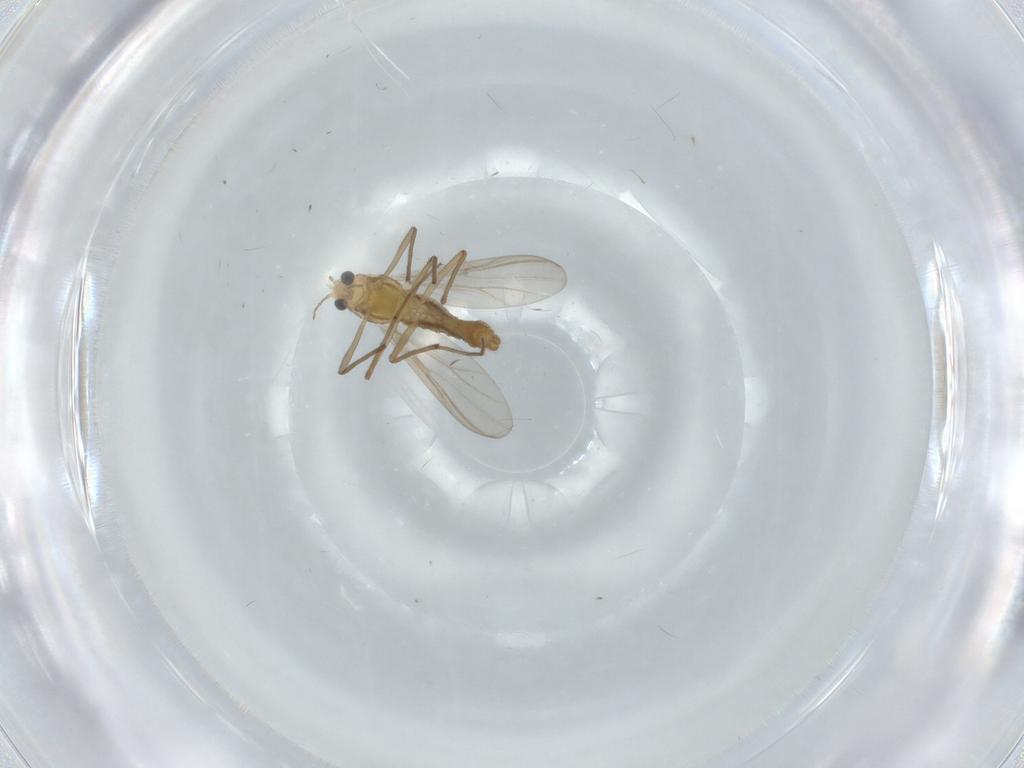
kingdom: Animalia
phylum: Arthropoda
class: Insecta
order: Diptera
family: Chironomidae
